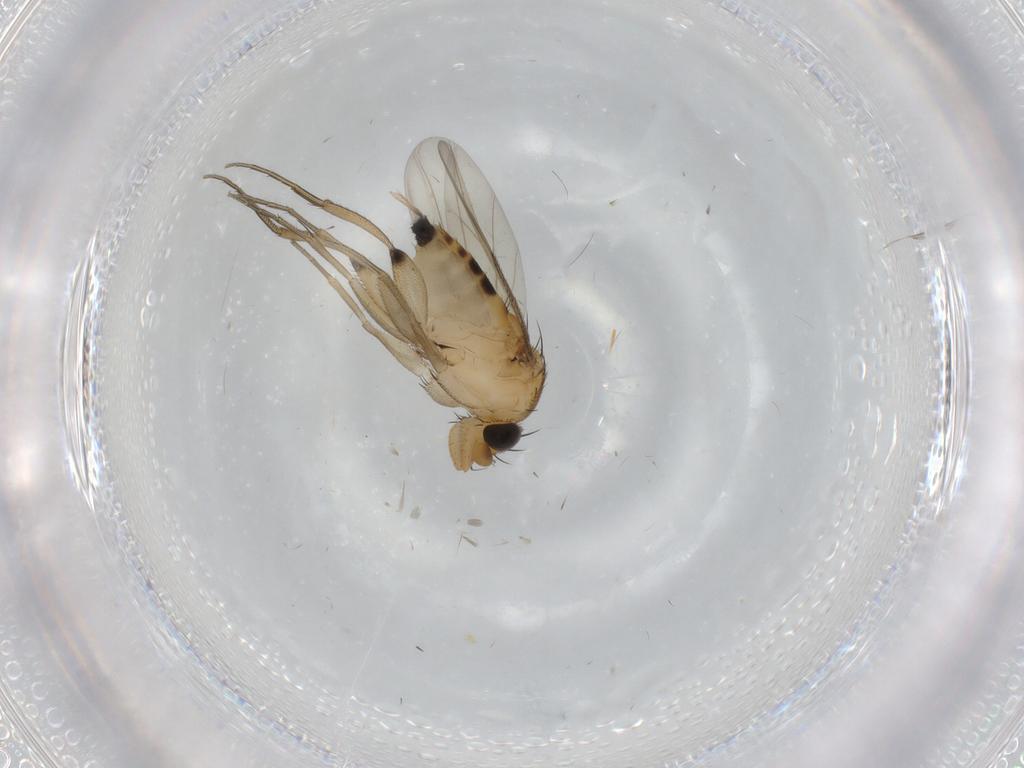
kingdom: Animalia
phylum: Arthropoda
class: Insecta
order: Diptera
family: Phoridae
